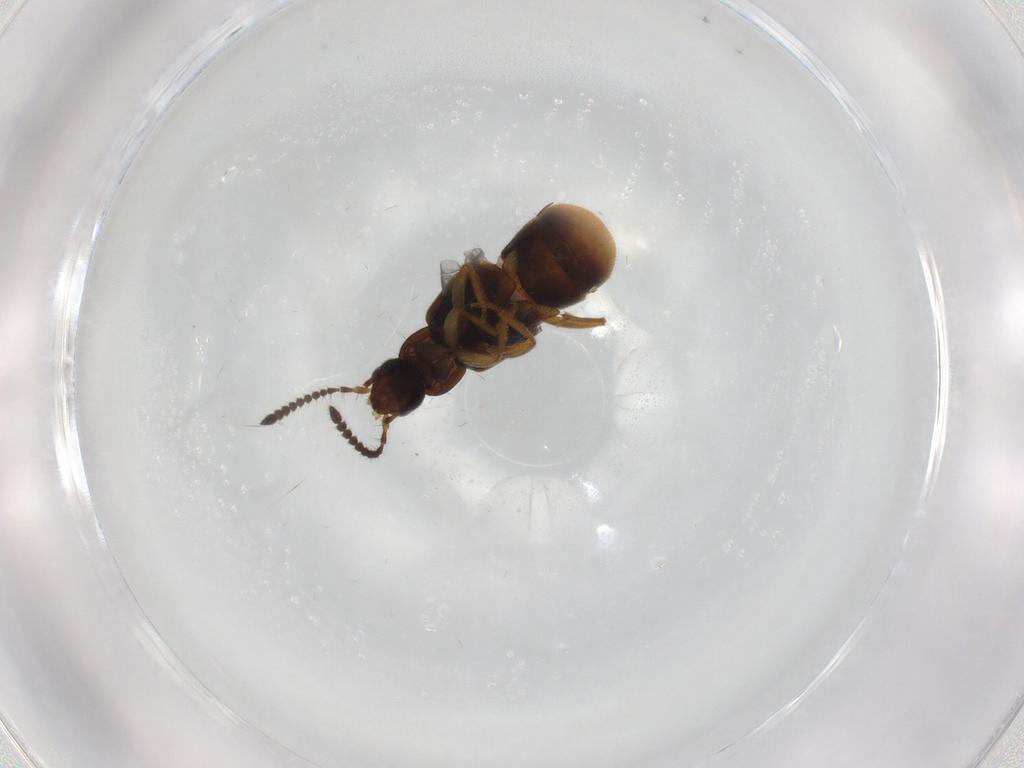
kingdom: Animalia
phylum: Arthropoda
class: Insecta
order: Coleoptera
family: Staphylinidae
